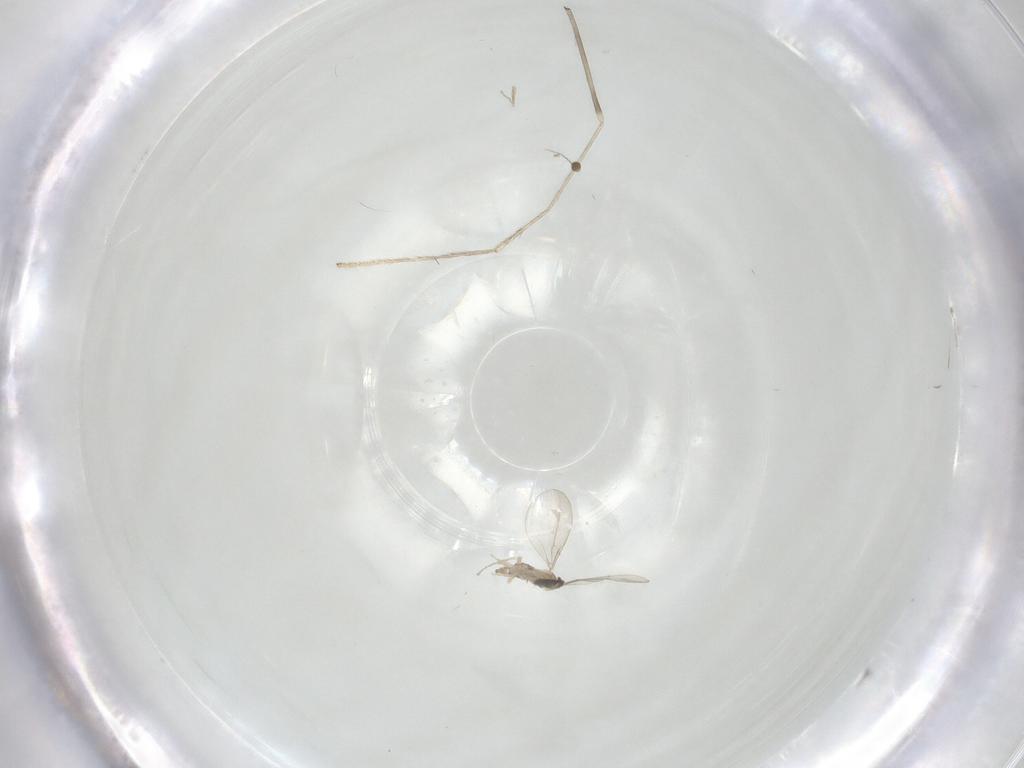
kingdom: Animalia
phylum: Arthropoda
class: Insecta
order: Diptera
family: Limoniidae
